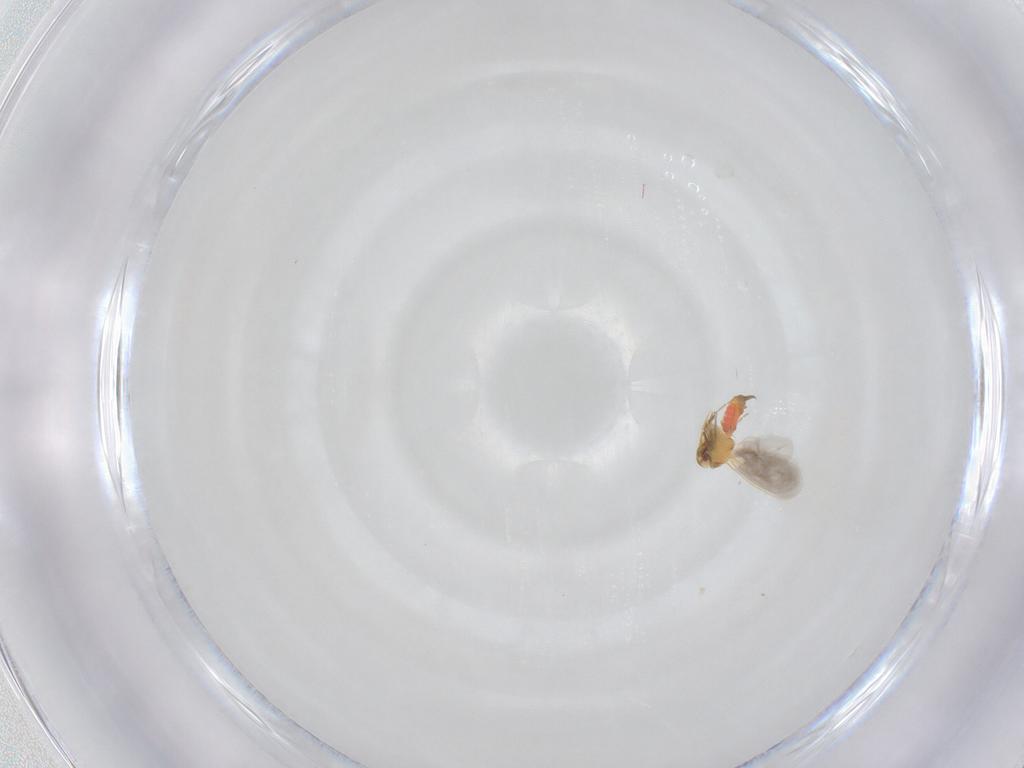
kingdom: Animalia
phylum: Arthropoda
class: Insecta
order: Hemiptera
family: Aleyrodidae
